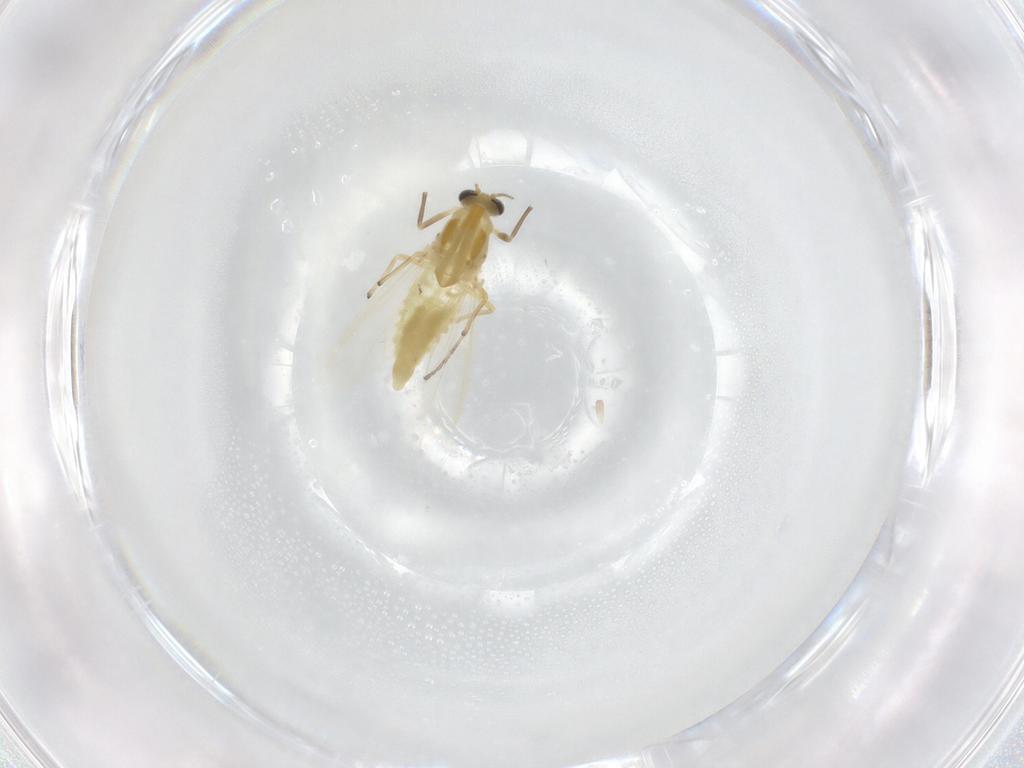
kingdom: Animalia
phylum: Arthropoda
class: Insecta
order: Diptera
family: Chironomidae
